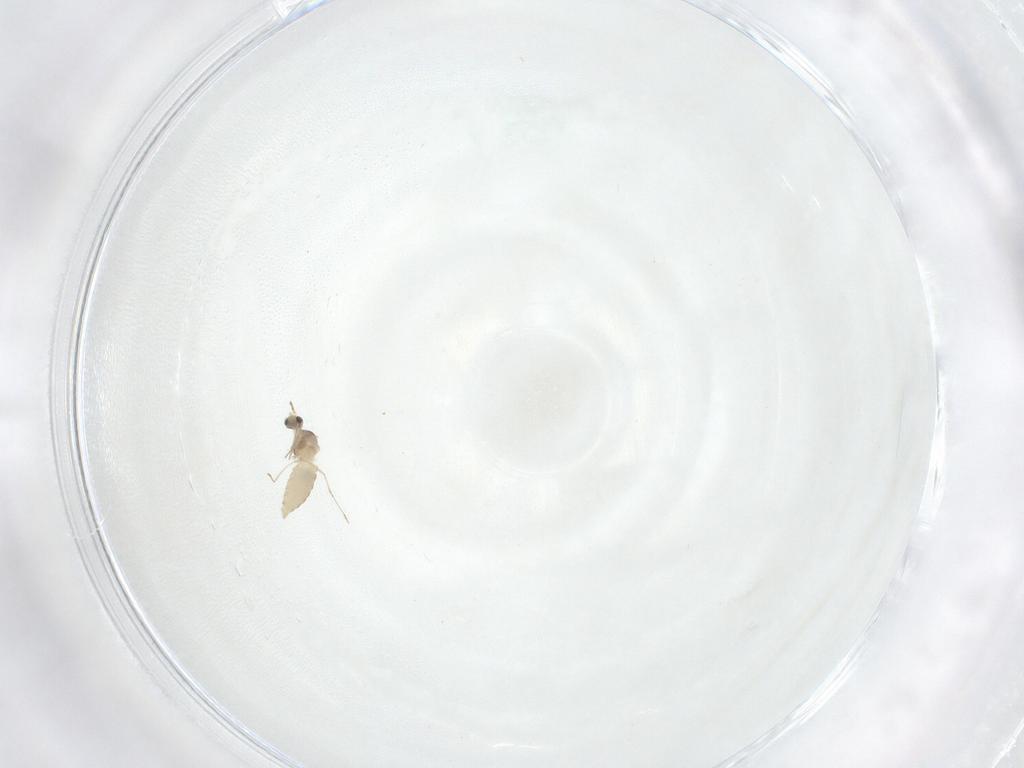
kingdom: Animalia
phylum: Arthropoda
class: Insecta
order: Diptera
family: Cecidomyiidae
